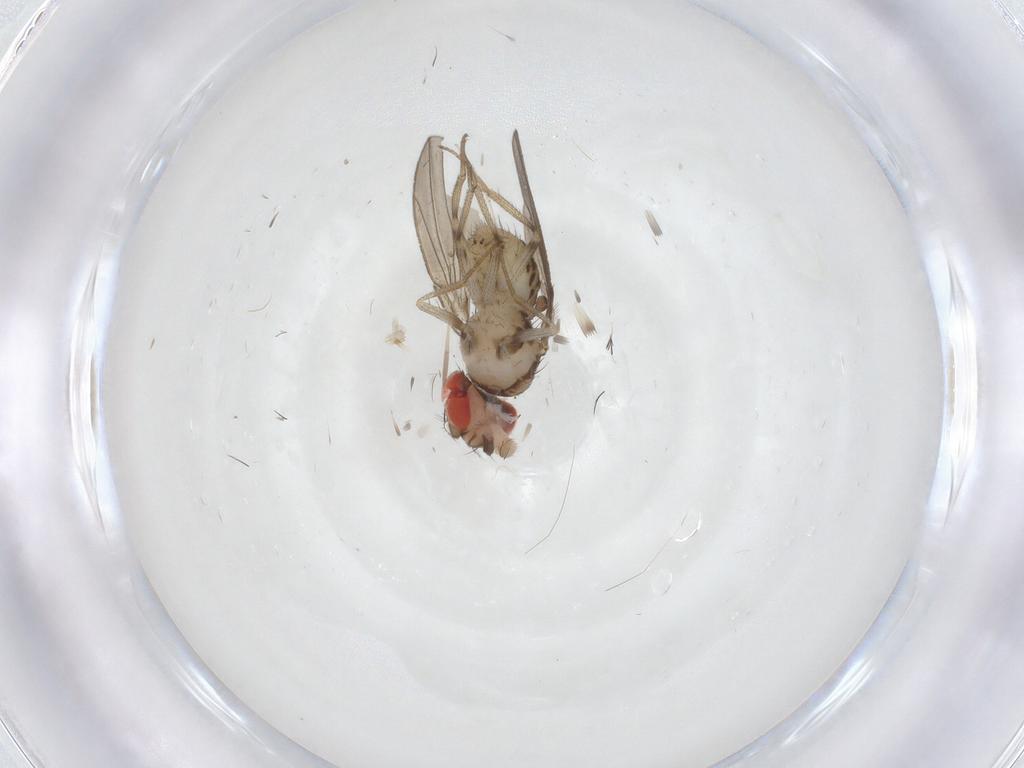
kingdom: Animalia
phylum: Arthropoda
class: Insecta
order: Diptera
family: Drosophilidae
